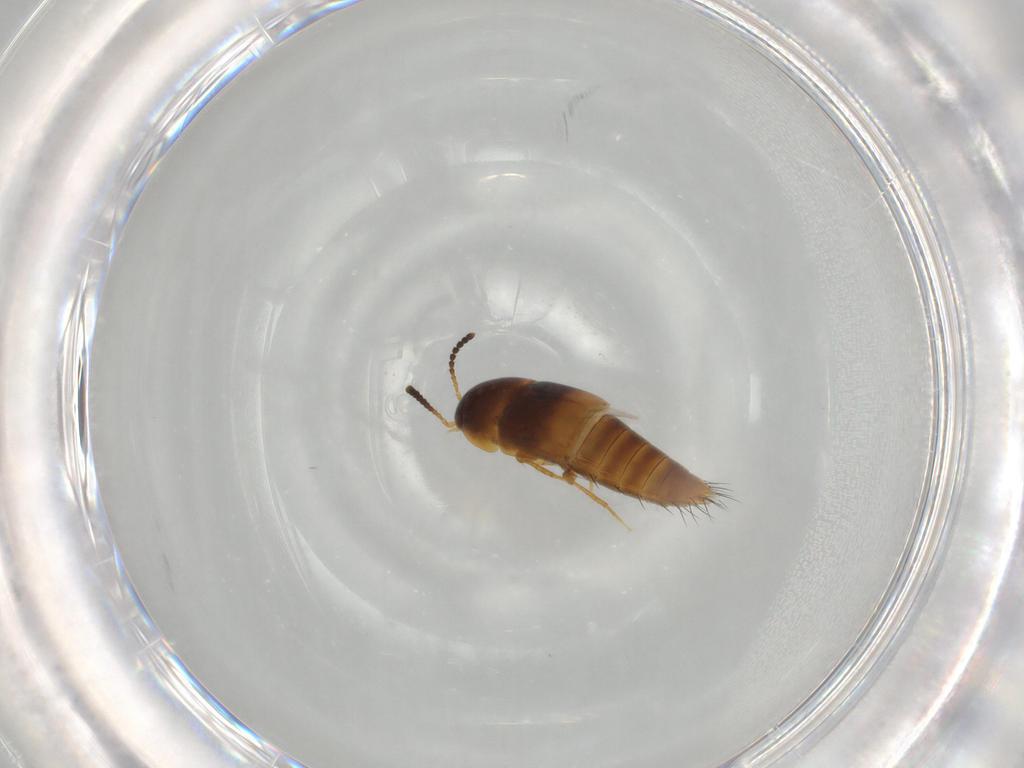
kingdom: Animalia
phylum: Arthropoda
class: Insecta
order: Coleoptera
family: Staphylinidae
